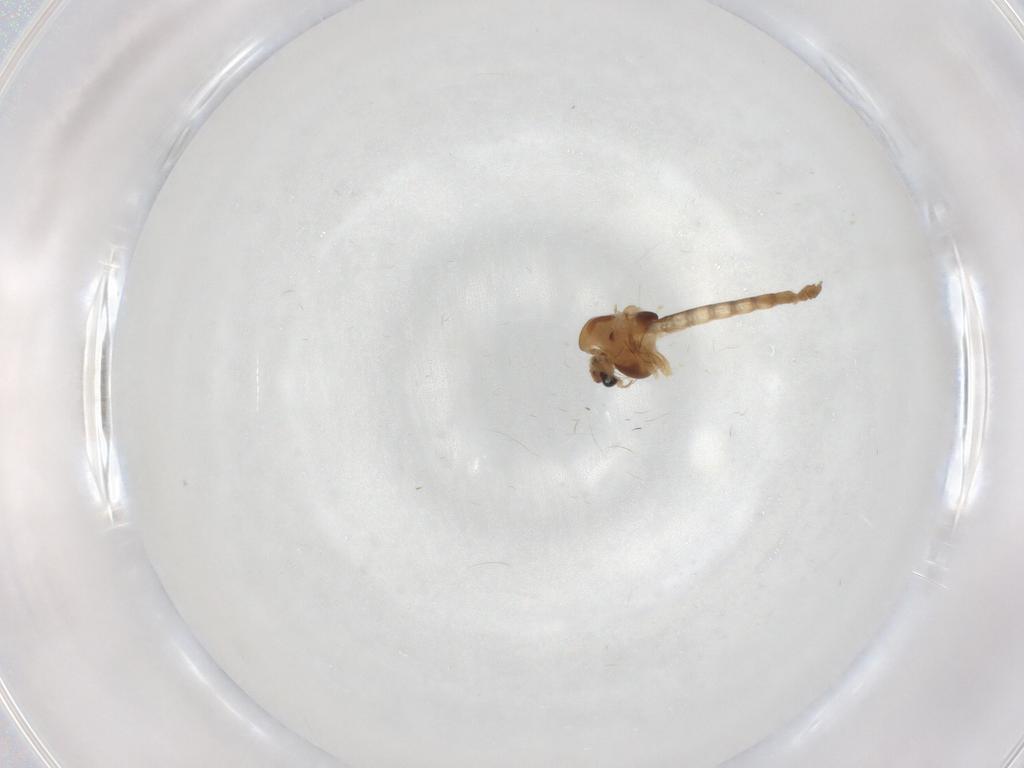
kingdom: Animalia
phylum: Arthropoda
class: Insecta
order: Diptera
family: Chironomidae
